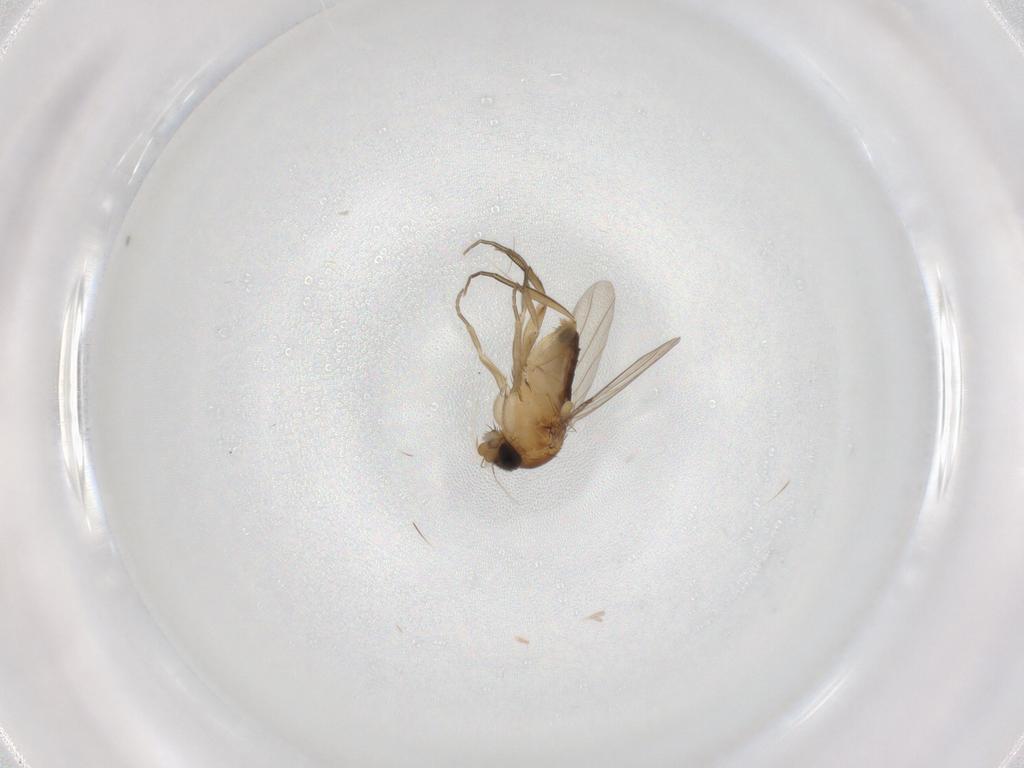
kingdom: Animalia
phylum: Arthropoda
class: Insecta
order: Diptera
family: Phoridae
